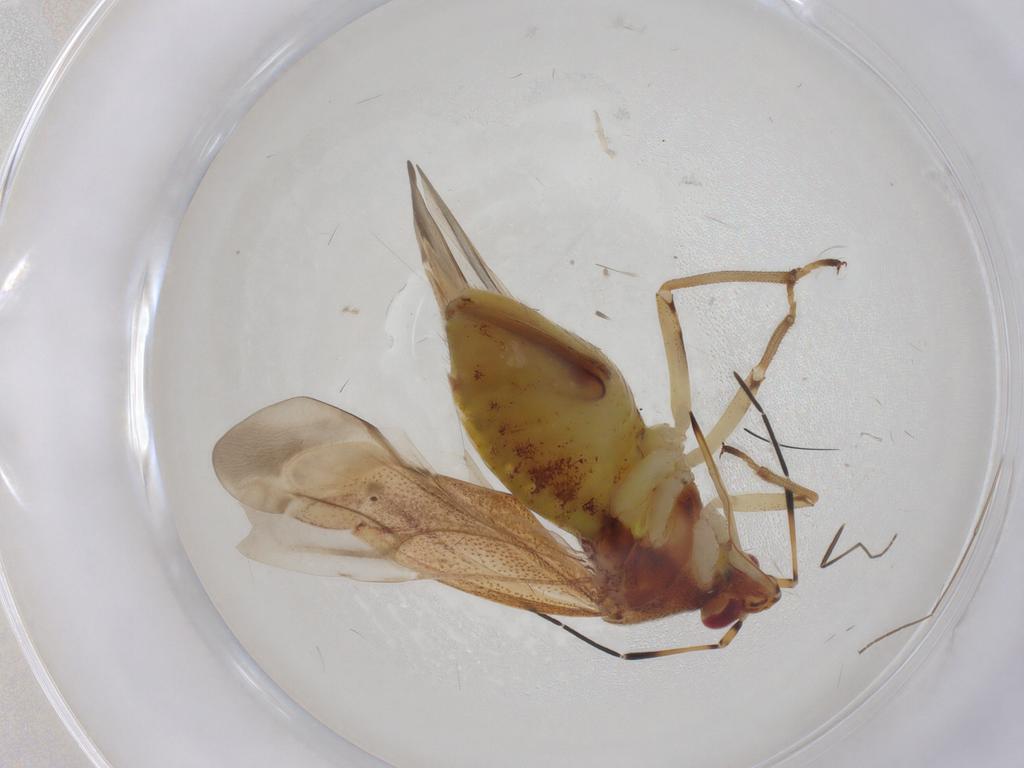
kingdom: Animalia
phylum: Arthropoda
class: Insecta
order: Hemiptera
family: Miridae
